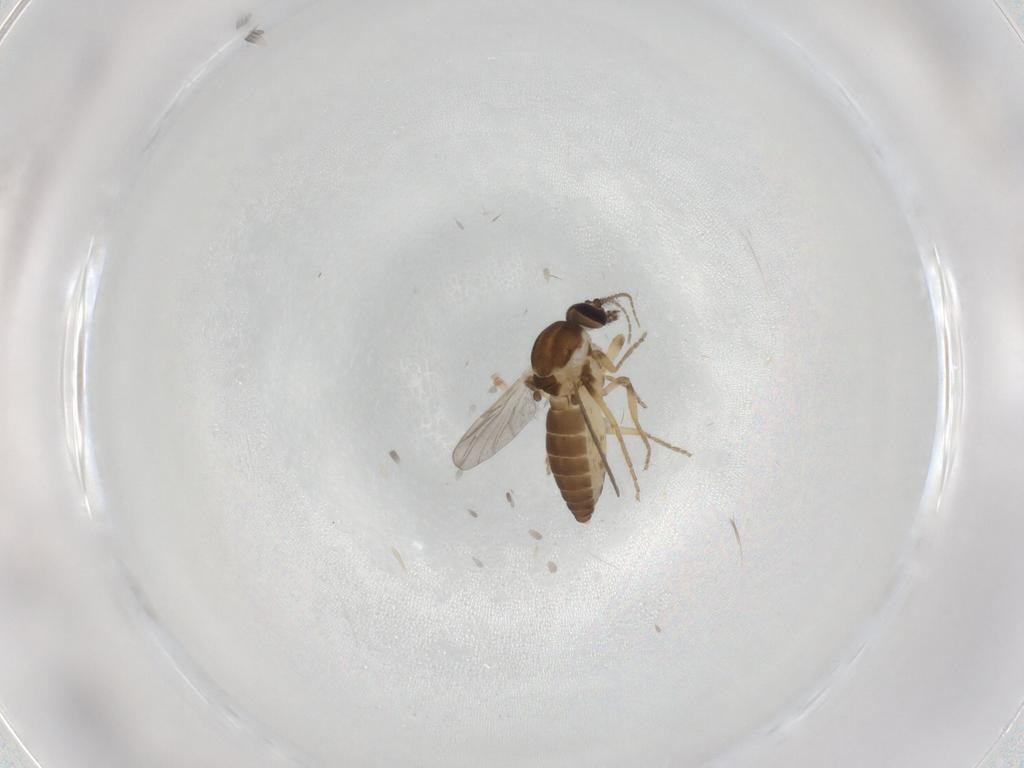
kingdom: Animalia
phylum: Arthropoda
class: Insecta
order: Diptera
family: Ceratopogonidae
